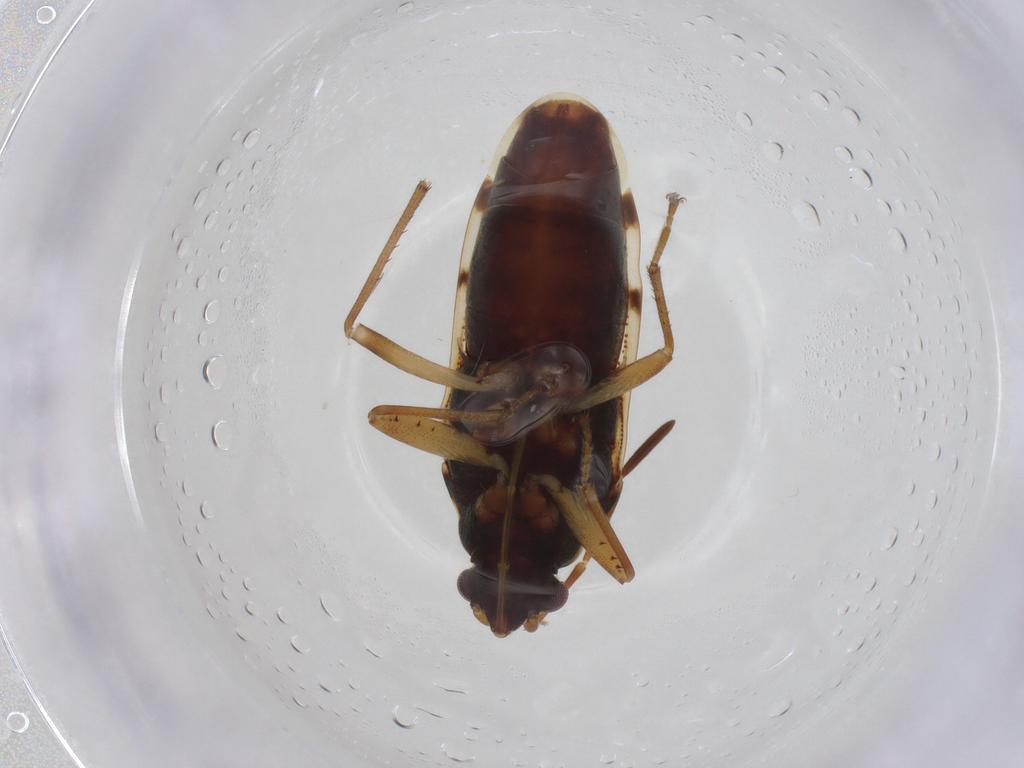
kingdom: Animalia
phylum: Arthropoda
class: Insecta
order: Hemiptera
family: Rhyparochromidae
